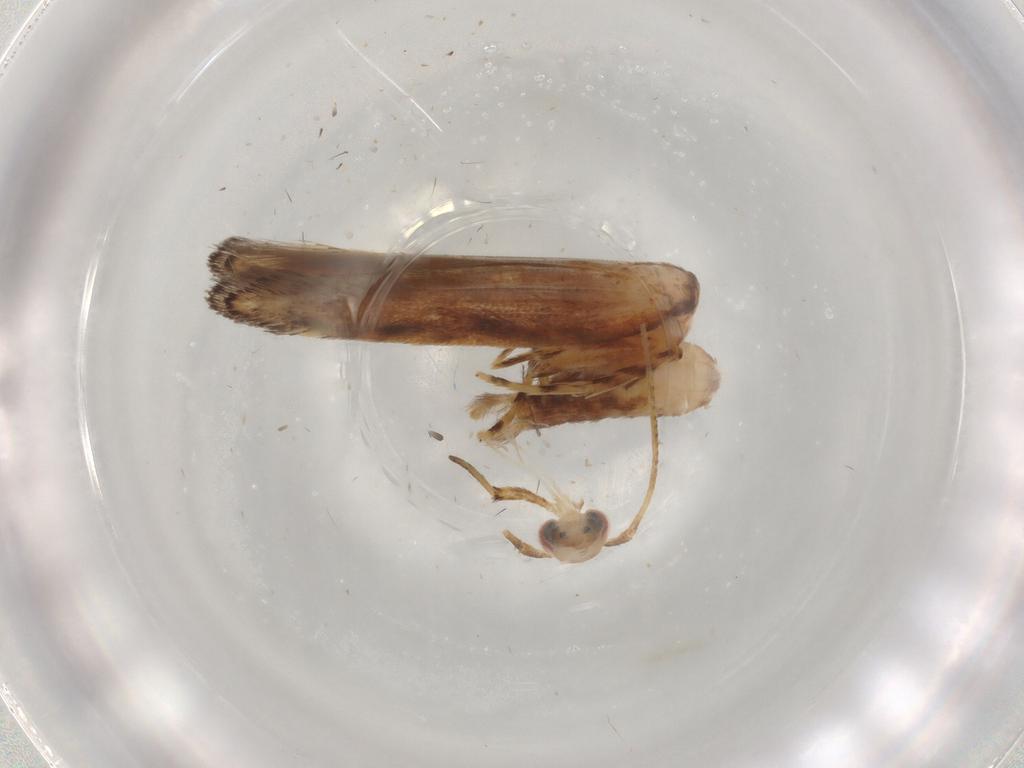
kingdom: Animalia
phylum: Arthropoda
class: Insecta
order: Lepidoptera
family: Cosmopterigidae
